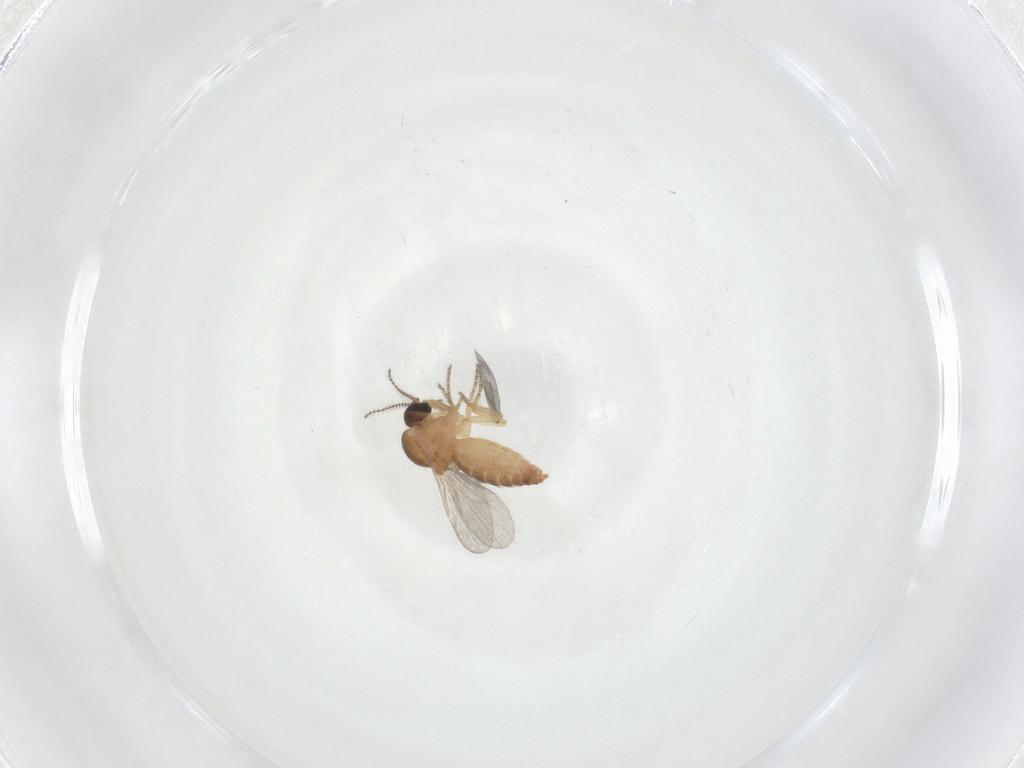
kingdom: Animalia
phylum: Arthropoda
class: Insecta
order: Diptera
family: Ceratopogonidae
